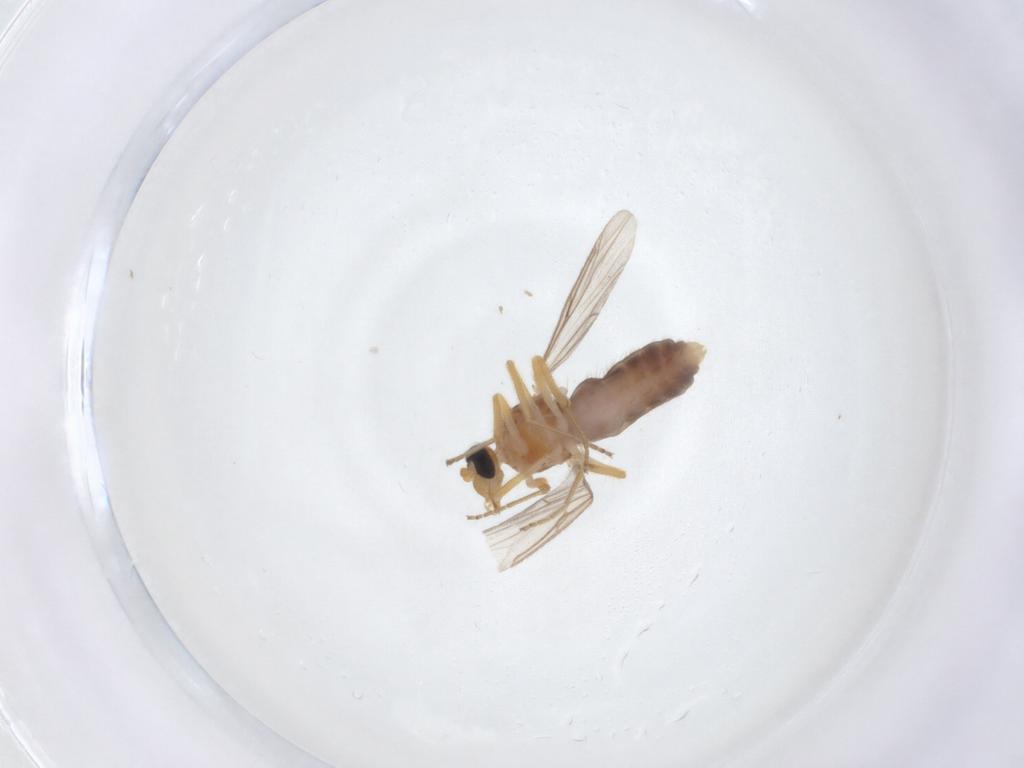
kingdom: Animalia
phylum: Arthropoda
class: Insecta
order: Diptera
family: Ceratopogonidae
